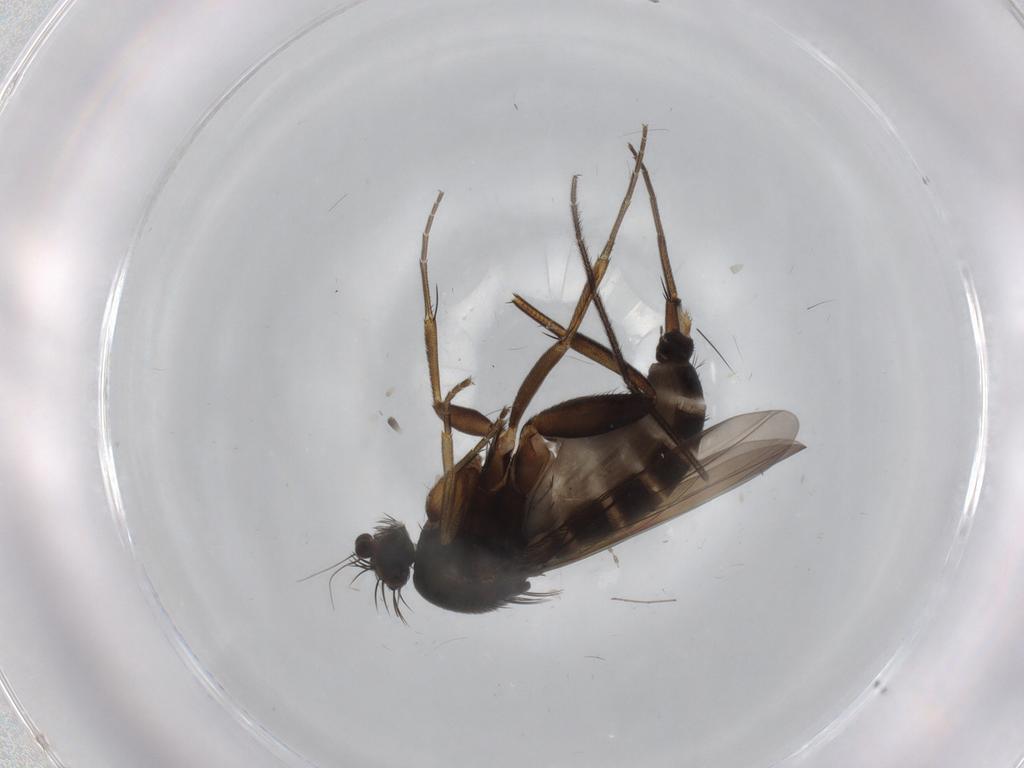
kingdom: Animalia
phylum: Arthropoda
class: Insecta
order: Diptera
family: Phoridae
